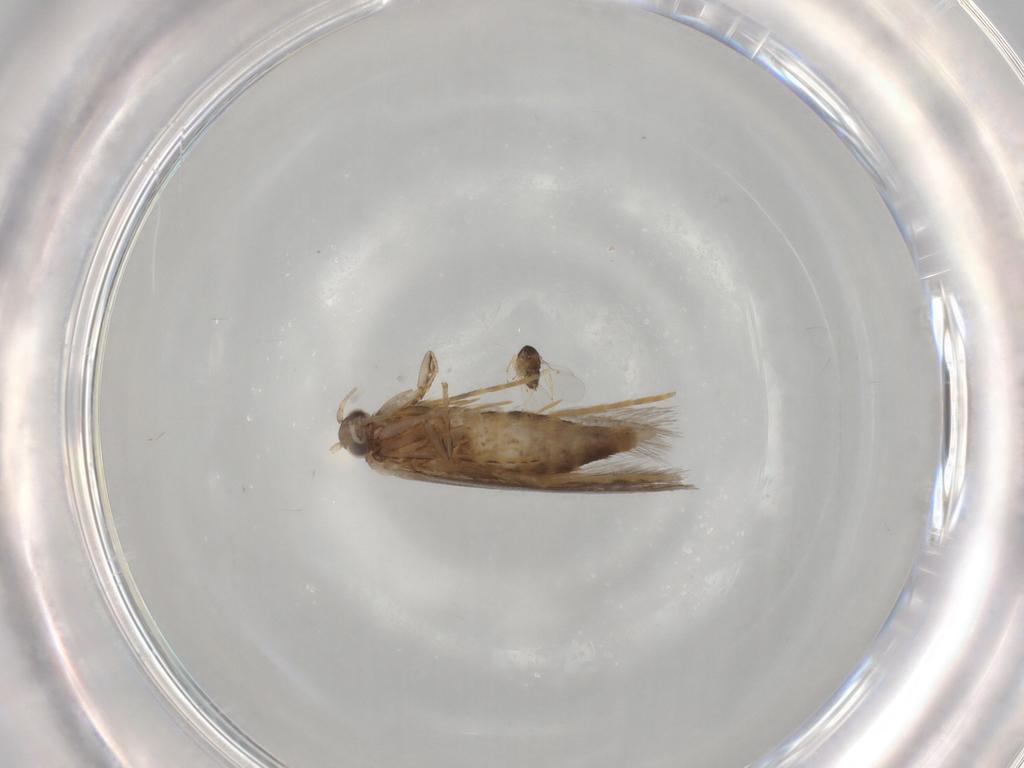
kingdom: Animalia
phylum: Arthropoda
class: Insecta
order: Lepidoptera
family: Tineidae
